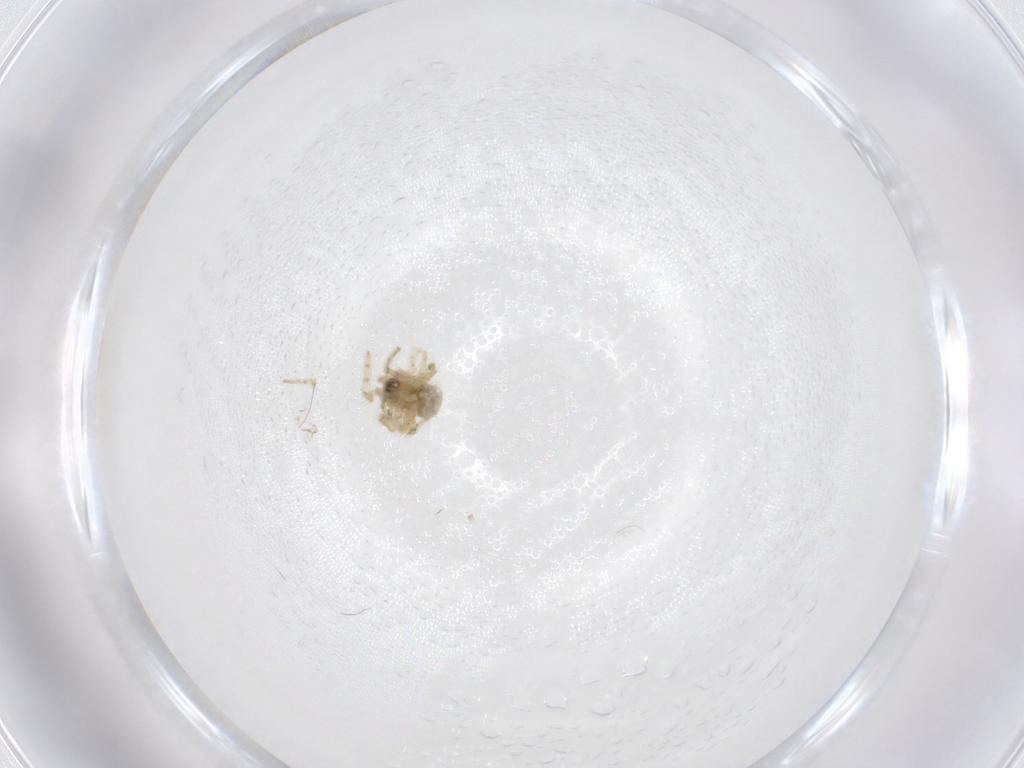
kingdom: Animalia
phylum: Arthropoda
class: Arachnida
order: Araneae
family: Theridiidae
